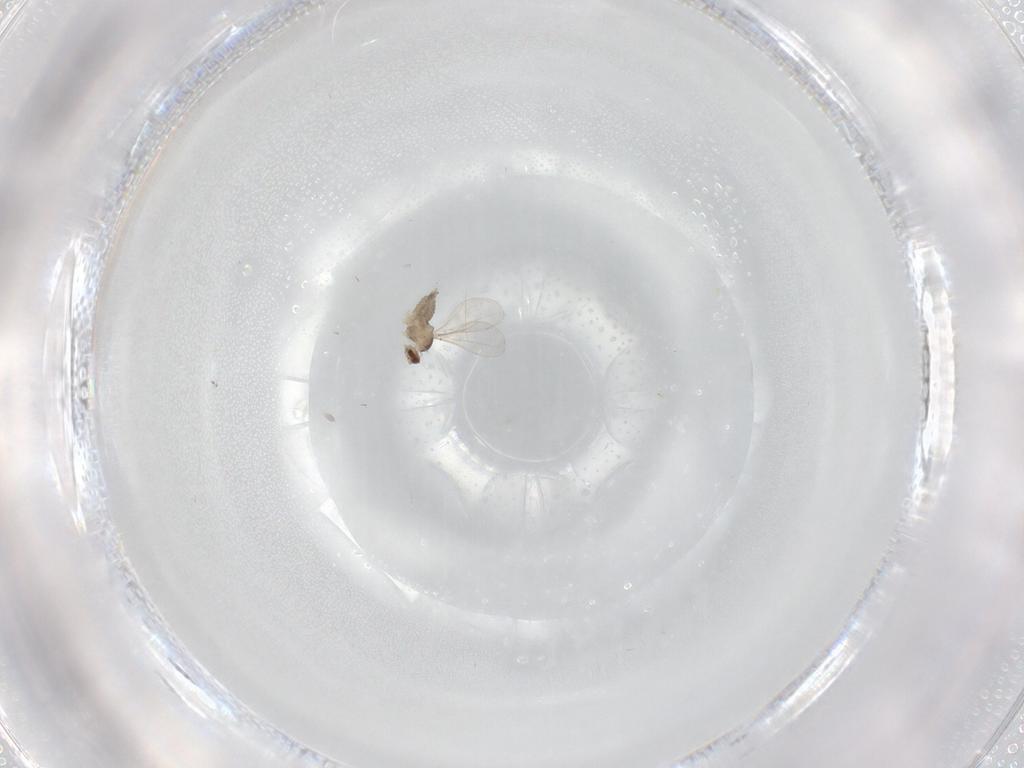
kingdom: Animalia
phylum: Arthropoda
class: Insecta
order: Diptera
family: Cecidomyiidae
